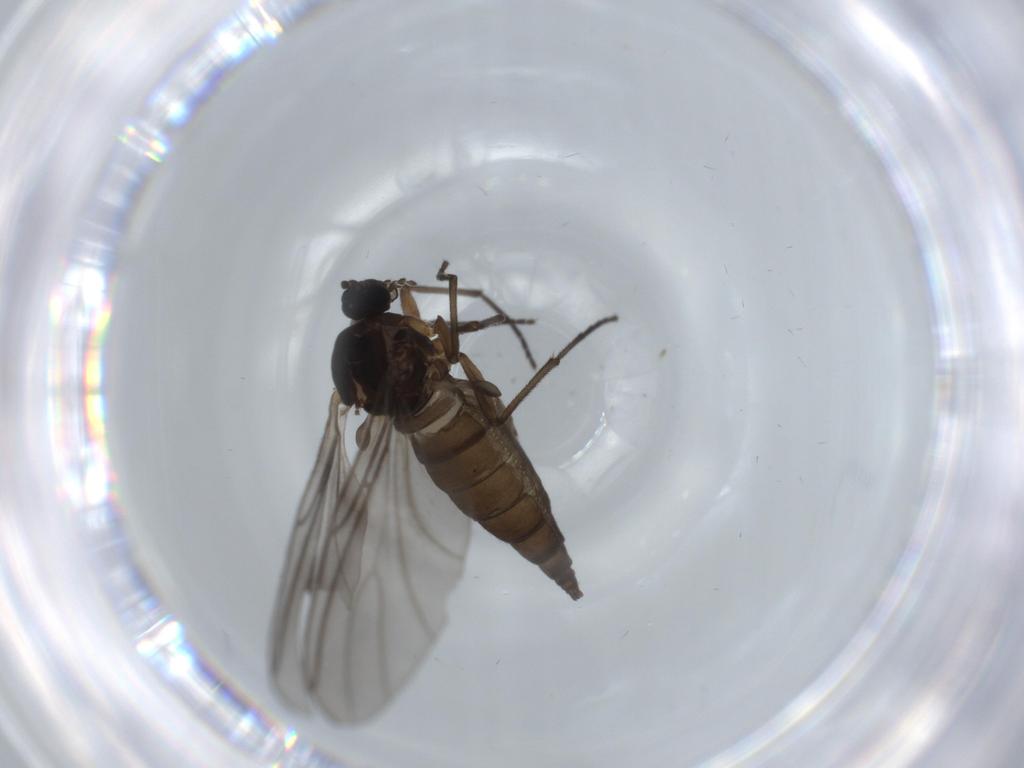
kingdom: Animalia
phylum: Arthropoda
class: Insecta
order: Diptera
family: Sciaridae
